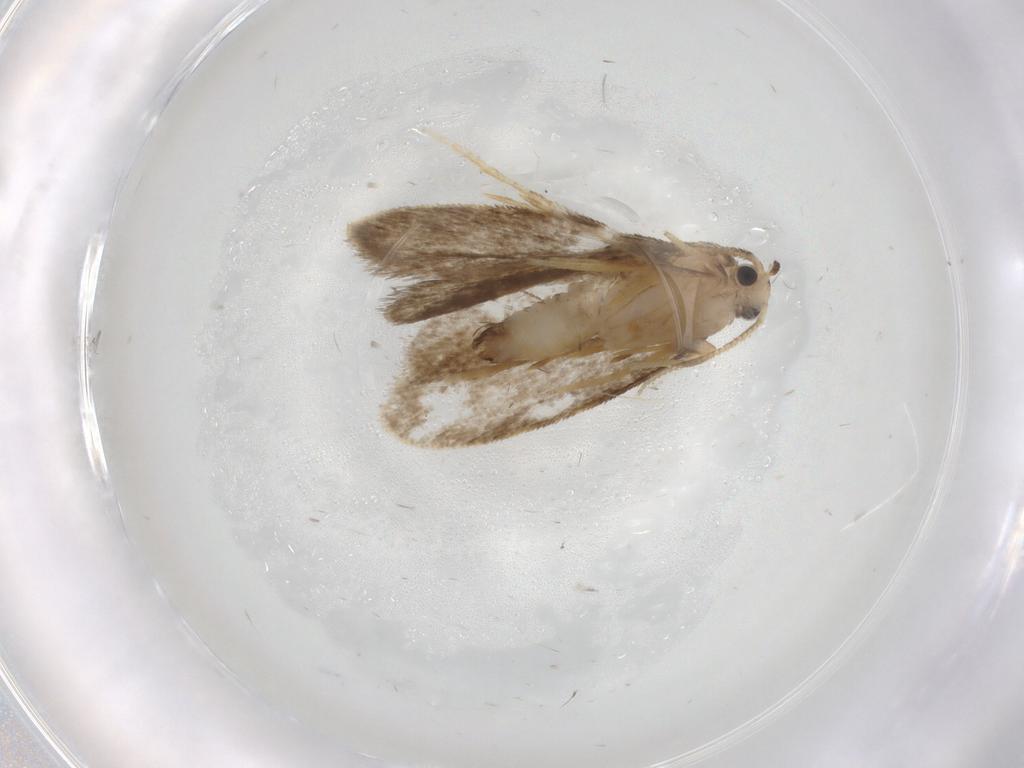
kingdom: Animalia
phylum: Arthropoda
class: Insecta
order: Lepidoptera
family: Psychidae
